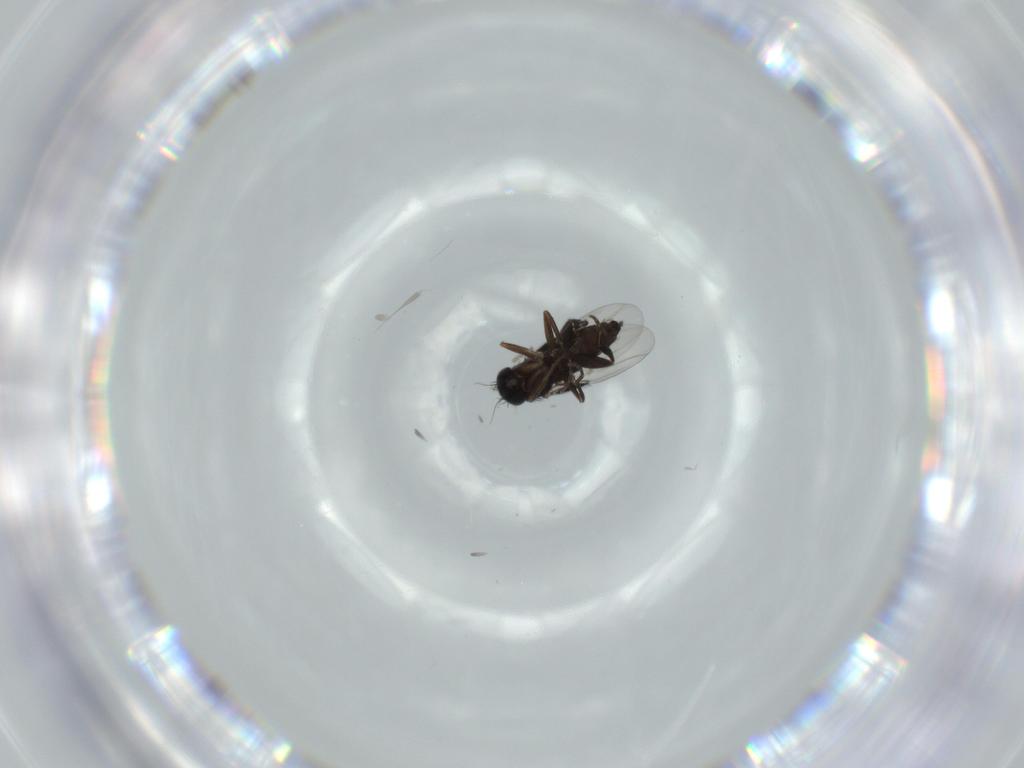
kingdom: Animalia
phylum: Arthropoda
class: Insecta
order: Diptera
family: Phoridae
